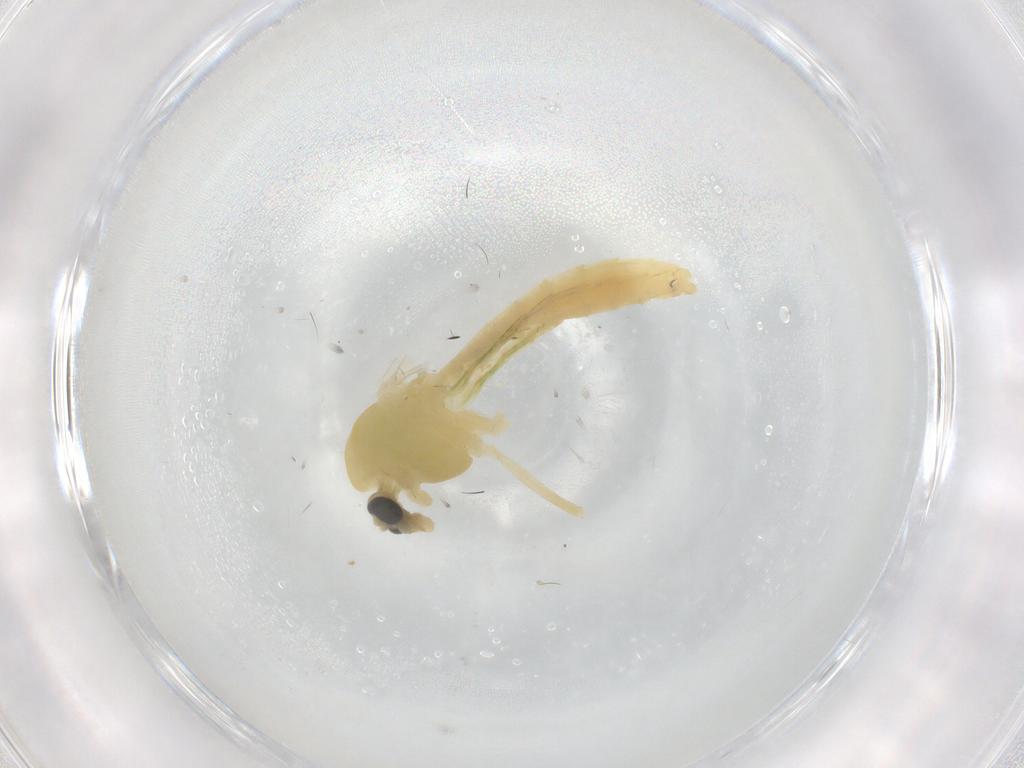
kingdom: Animalia
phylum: Arthropoda
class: Insecta
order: Diptera
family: Chironomidae
